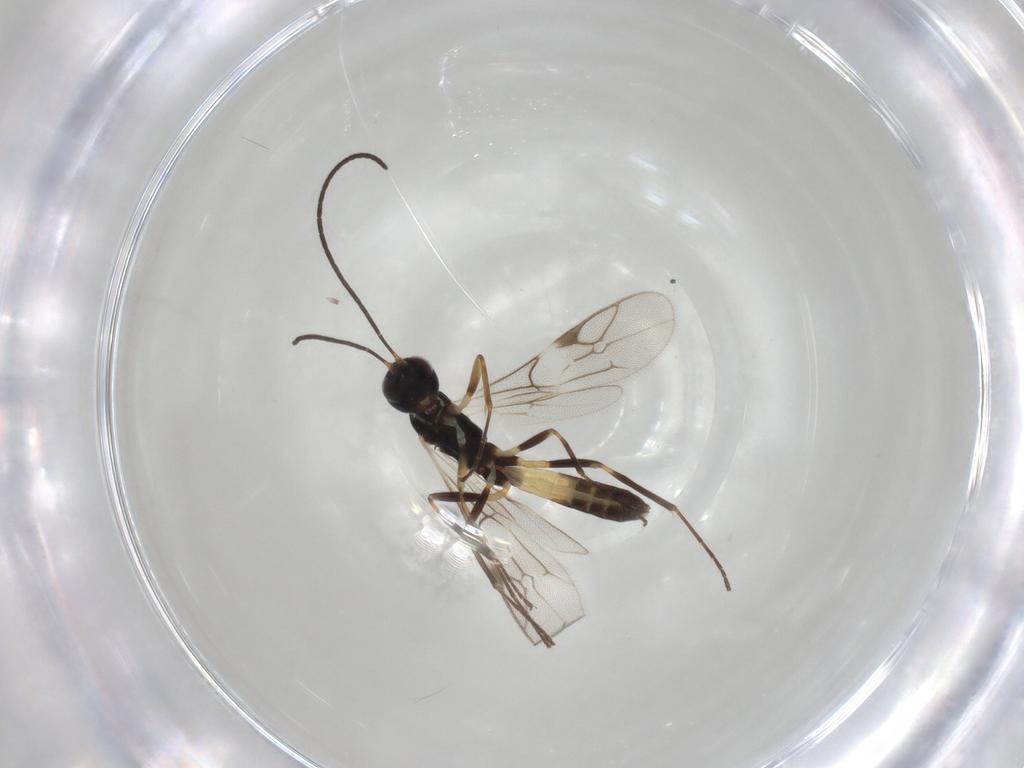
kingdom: Animalia
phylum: Arthropoda
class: Insecta
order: Hymenoptera
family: Ichneumonidae
